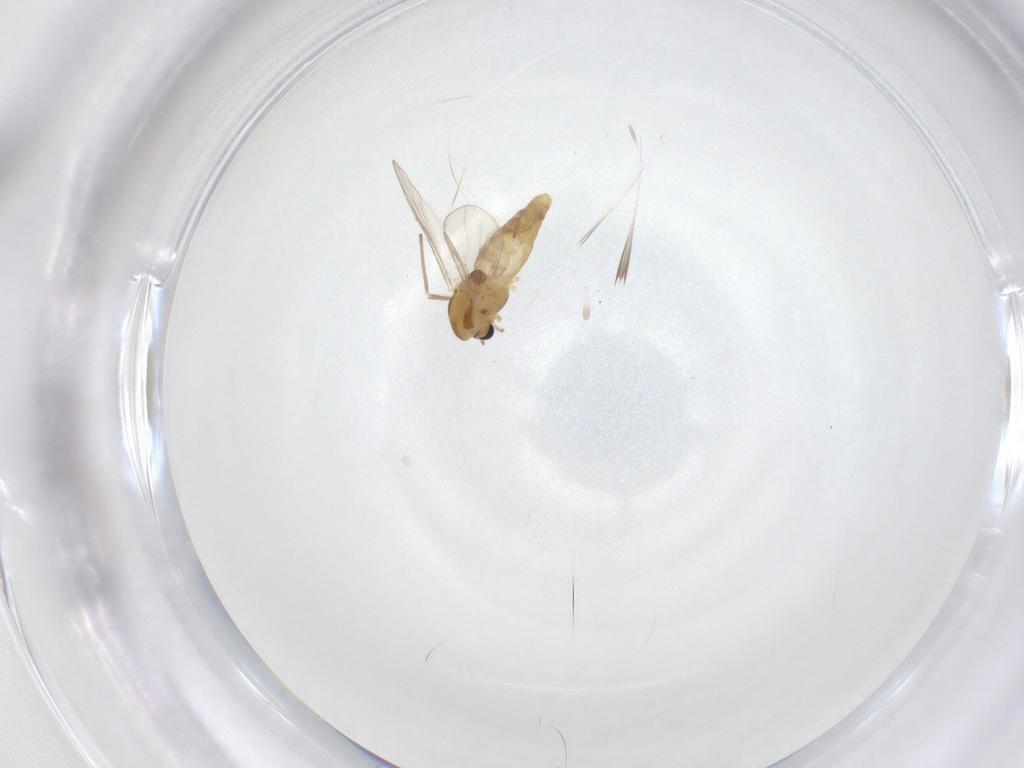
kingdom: Animalia
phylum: Arthropoda
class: Insecta
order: Diptera
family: Chironomidae
